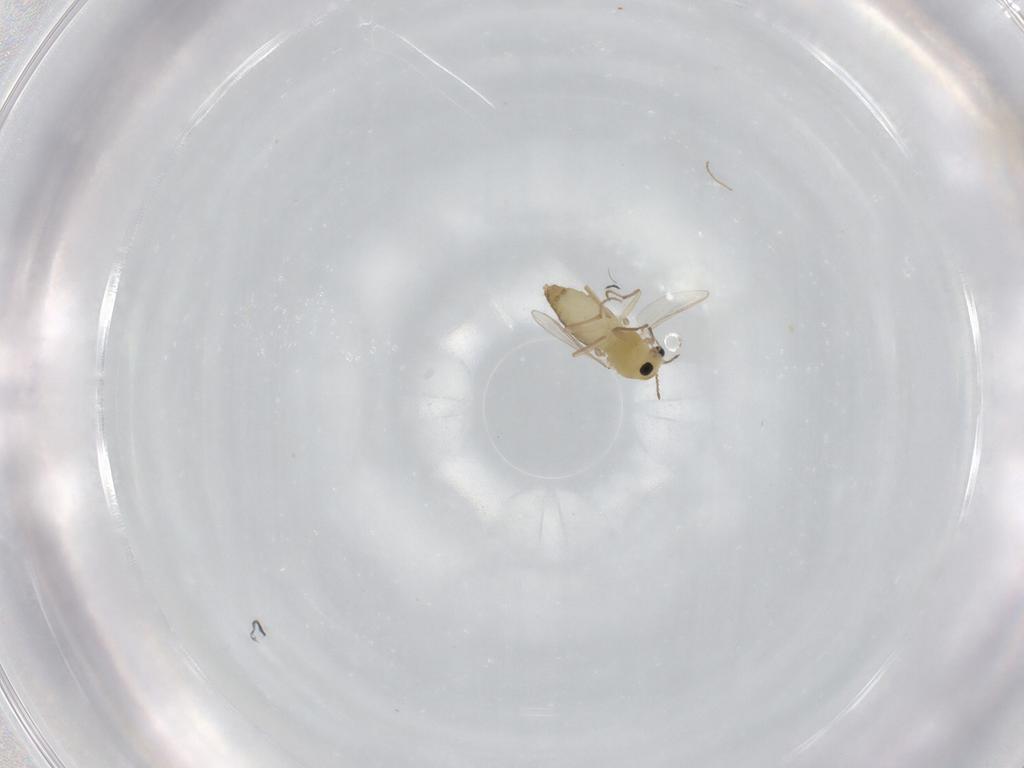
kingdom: Animalia
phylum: Arthropoda
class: Insecta
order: Diptera
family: Chironomidae
